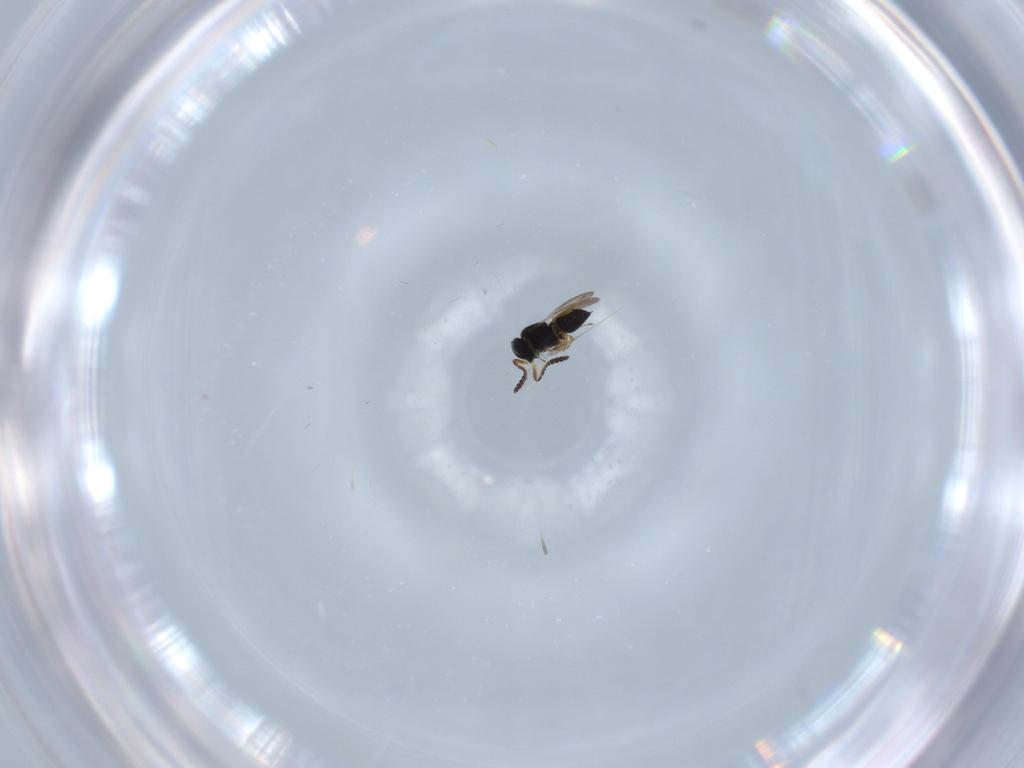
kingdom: Animalia
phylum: Arthropoda
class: Insecta
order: Hymenoptera
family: Scelionidae
